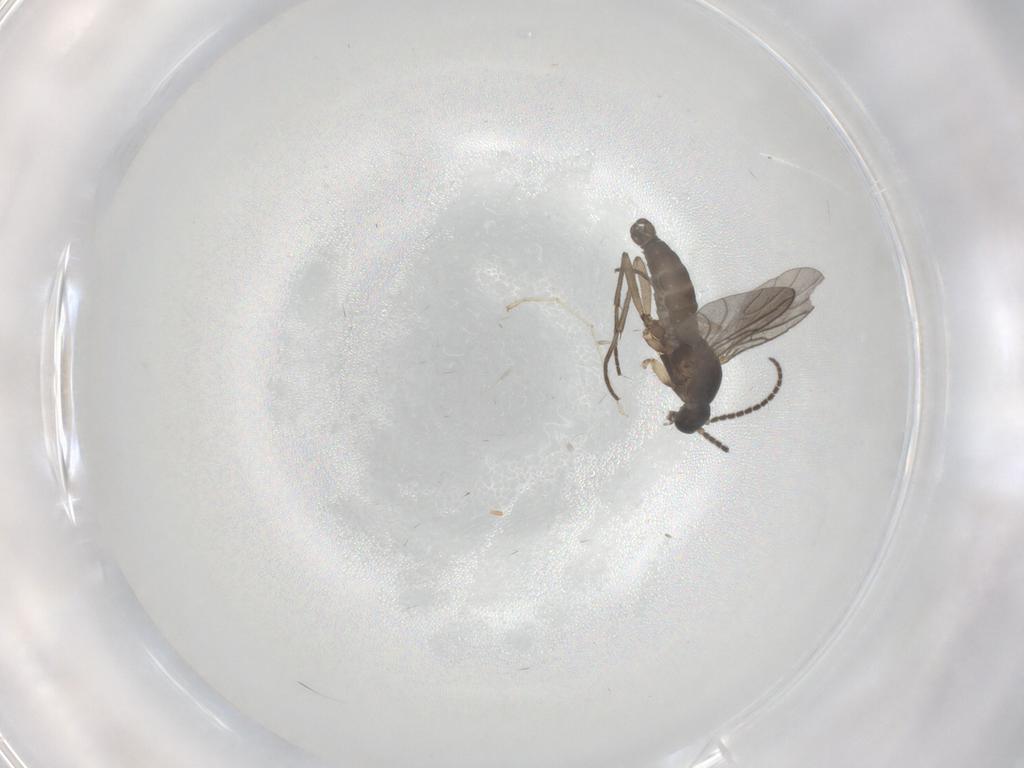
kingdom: Animalia
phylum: Arthropoda
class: Insecta
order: Diptera
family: Sciaridae
